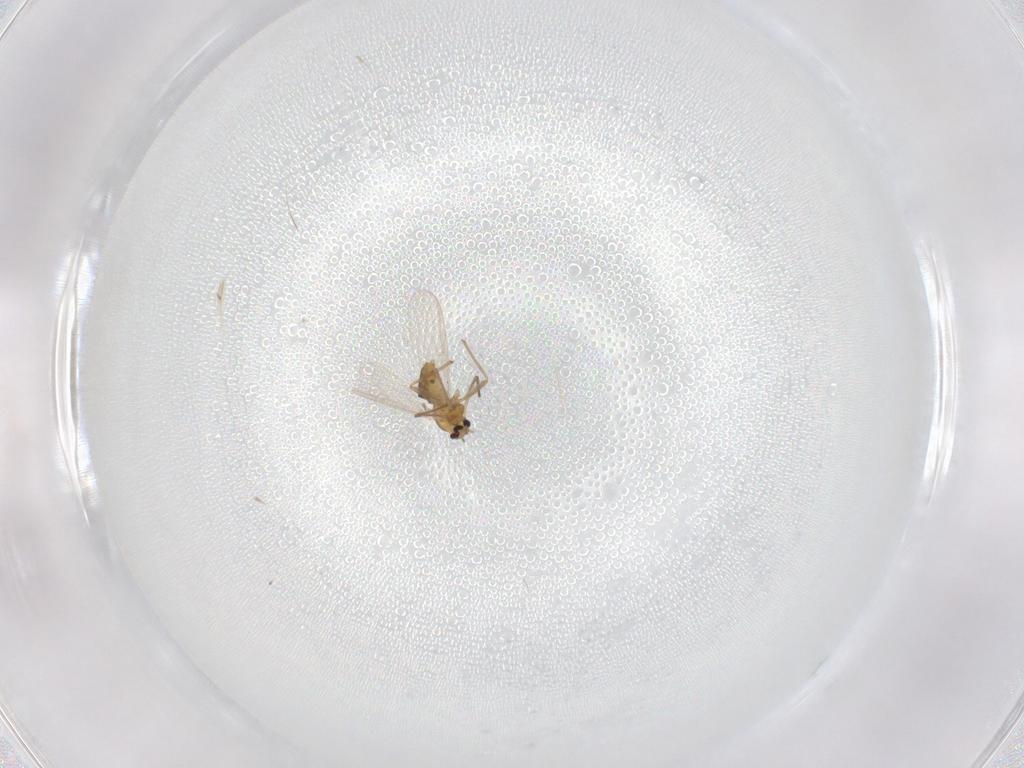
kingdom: Animalia
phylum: Arthropoda
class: Insecta
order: Diptera
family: Chironomidae
